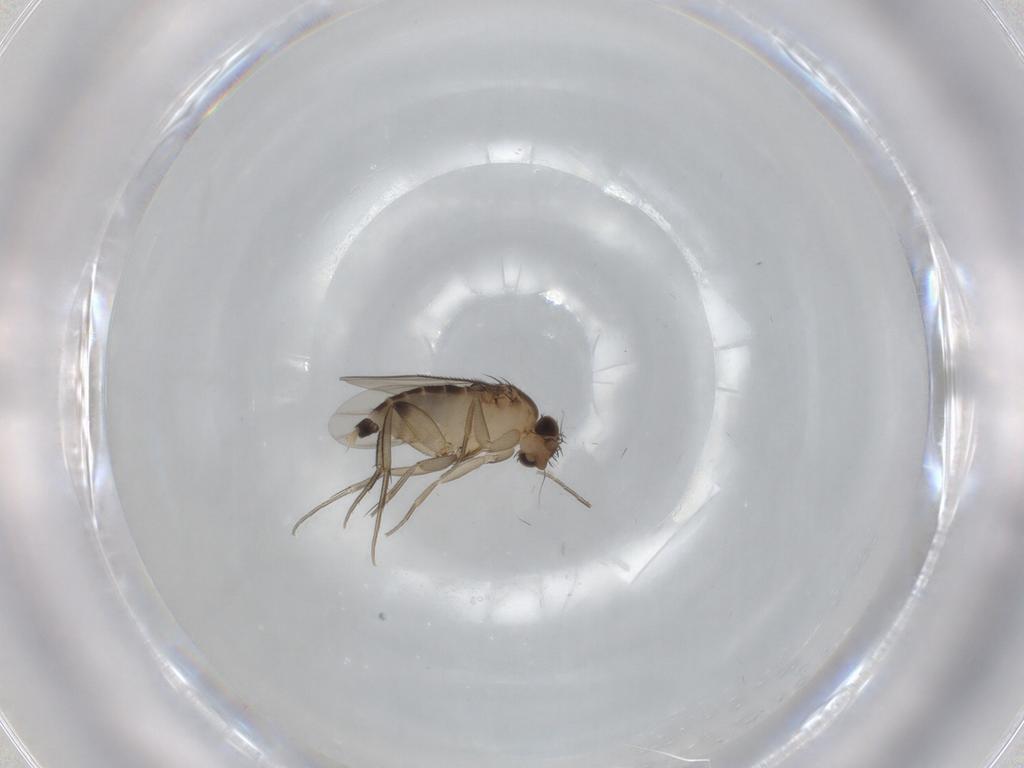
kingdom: Animalia
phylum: Arthropoda
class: Insecta
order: Diptera
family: Phoridae
